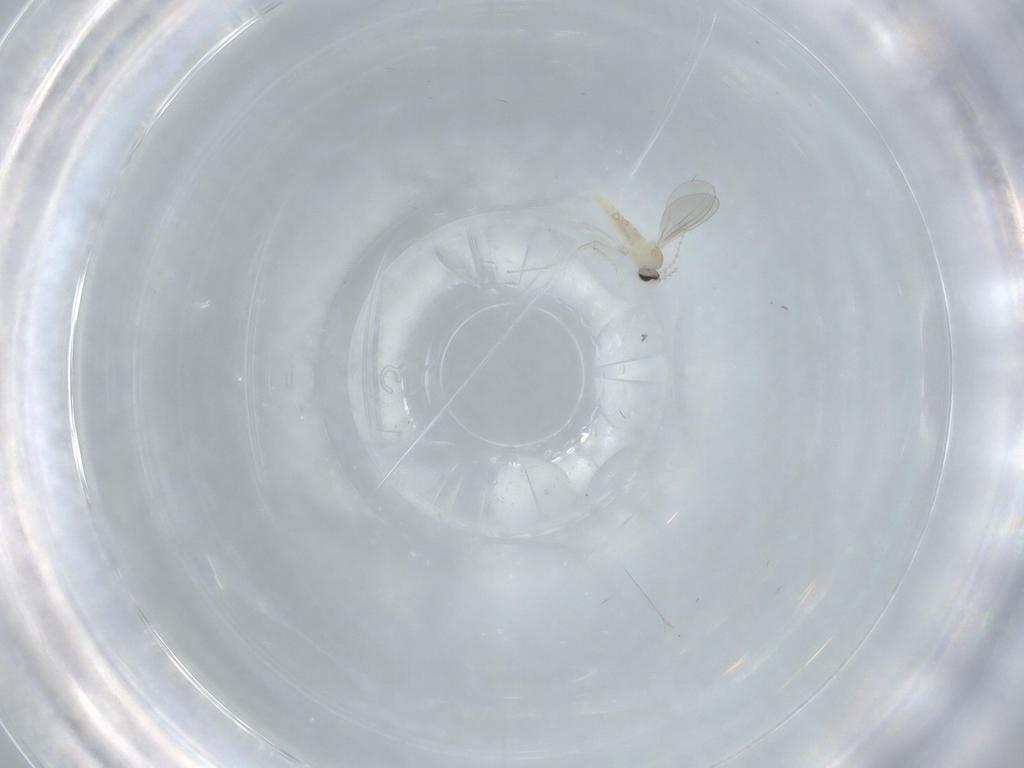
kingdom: Animalia
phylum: Arthropoda
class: Insecta
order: Diptera
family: Cecidomyiidae
